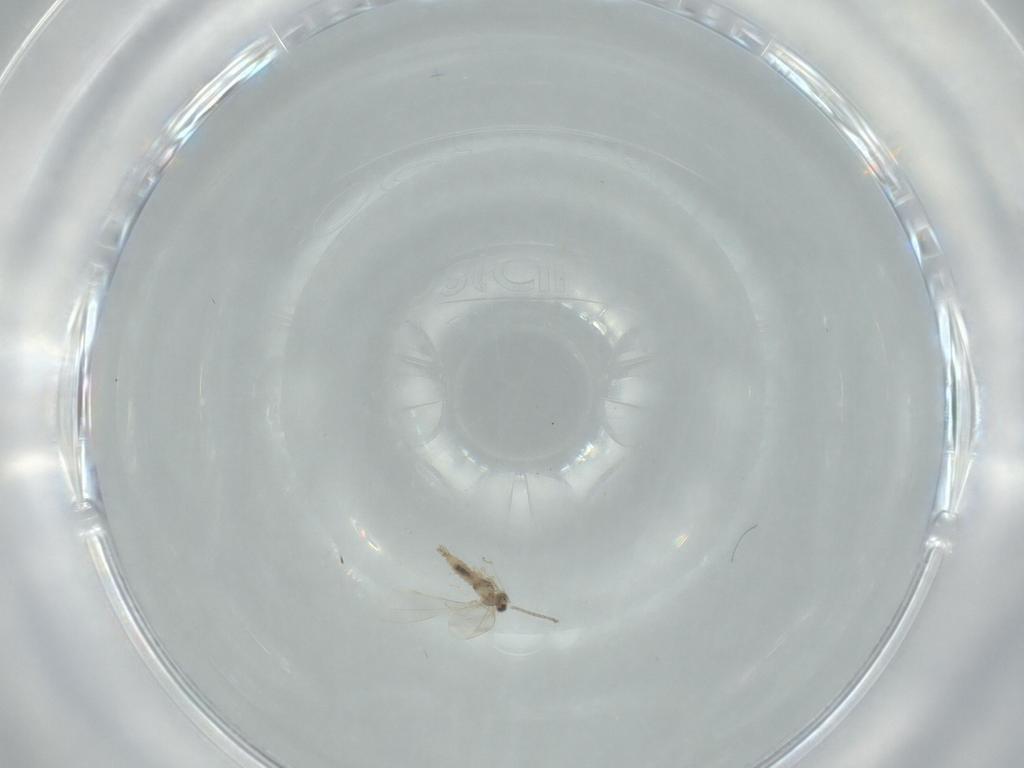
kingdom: Animalia
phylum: Arthropoda
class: Insecta
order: Diptera
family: Cecidomyiidae
